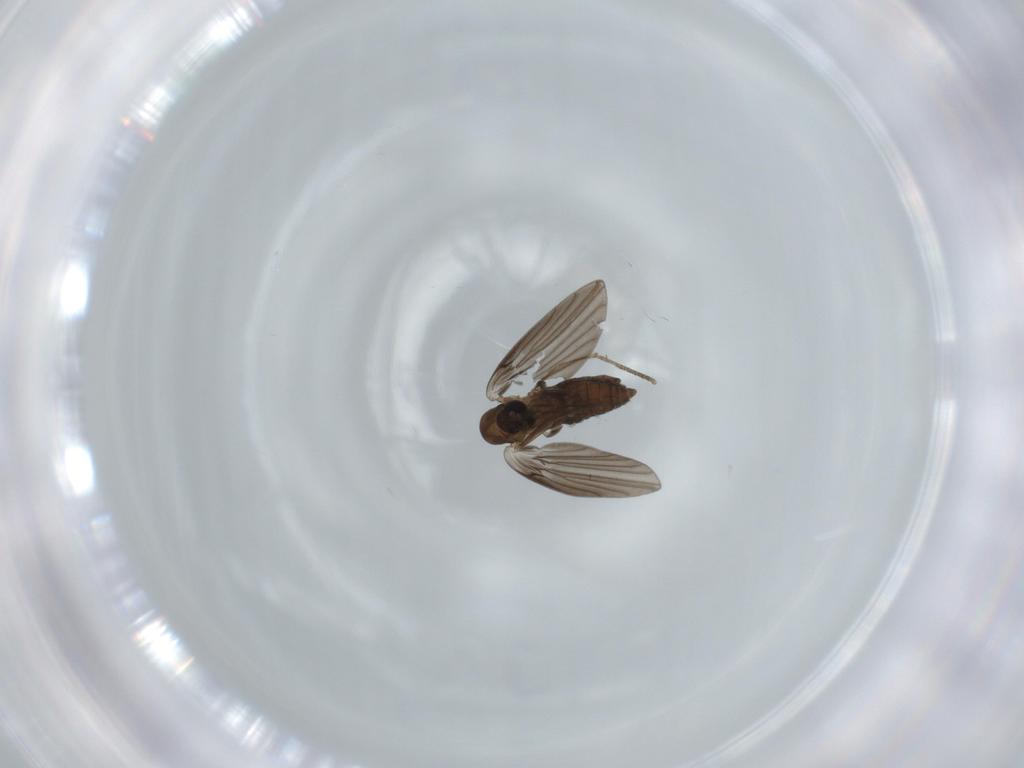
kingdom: Animalia
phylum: Arthropoda
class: Insecta
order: Diptera
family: Psychodidae
